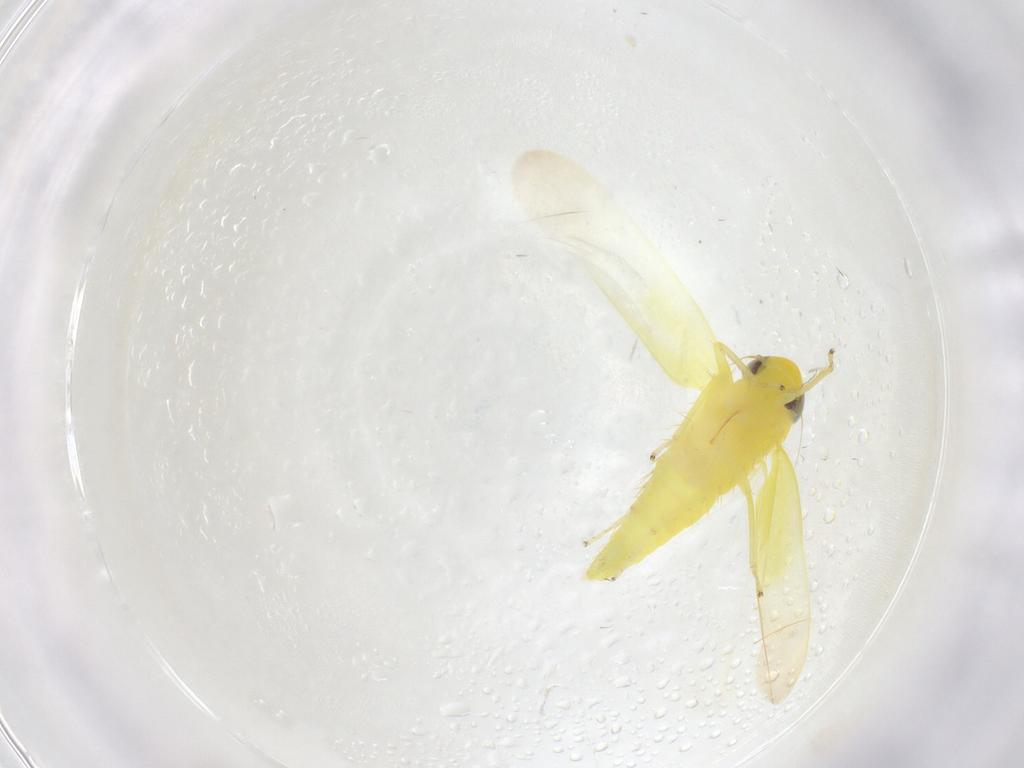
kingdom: Animalia
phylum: Arthropoda
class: Insecta
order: Hemiptera
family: Cicadellidae
